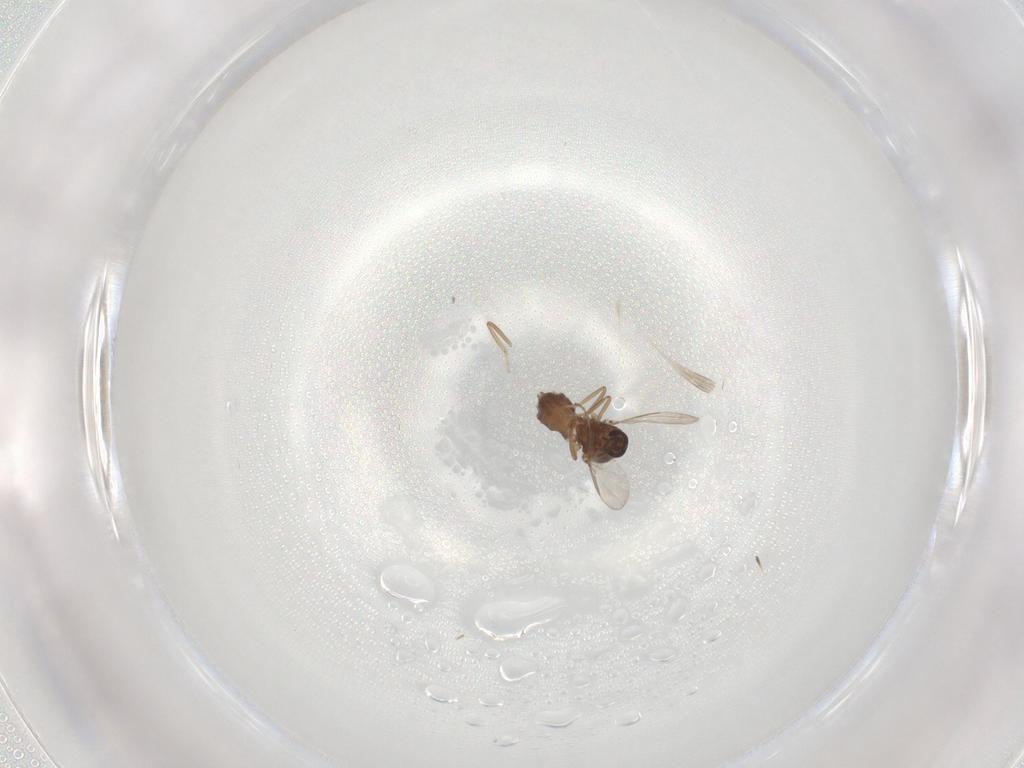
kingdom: Animalia
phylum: Arthropoda
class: Insecta
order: Diptera
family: Ceratopogonidae
